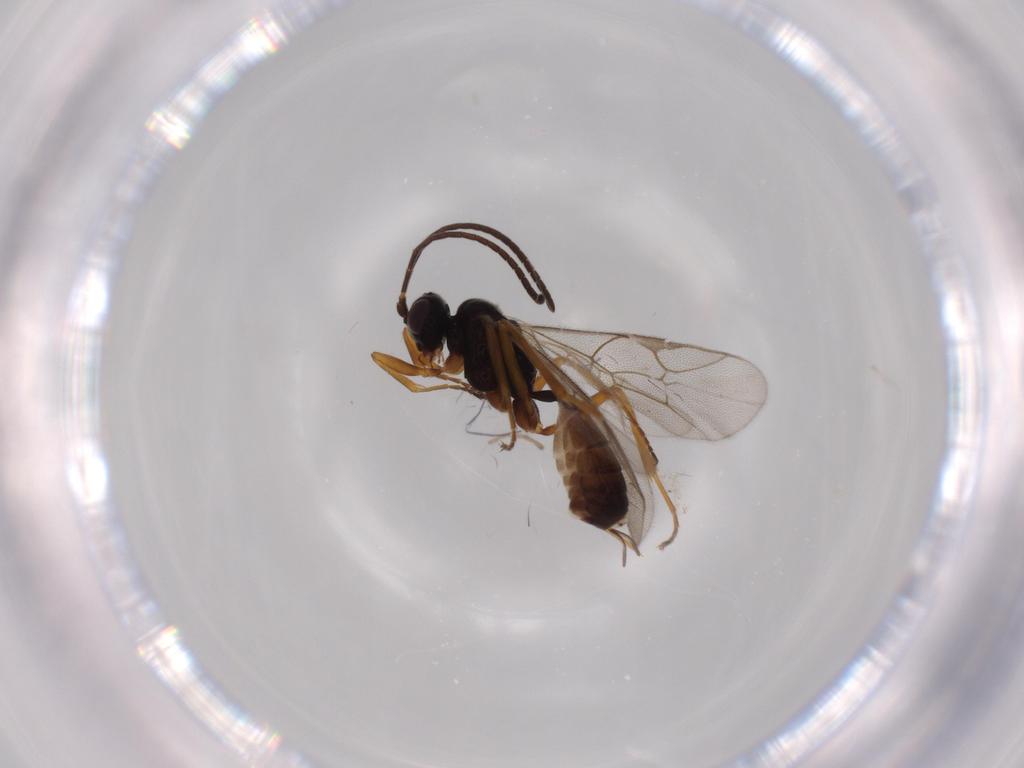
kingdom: Animalia
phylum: Arthropoda
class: Insecta
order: Hymenoptera
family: Ichneumonidae
